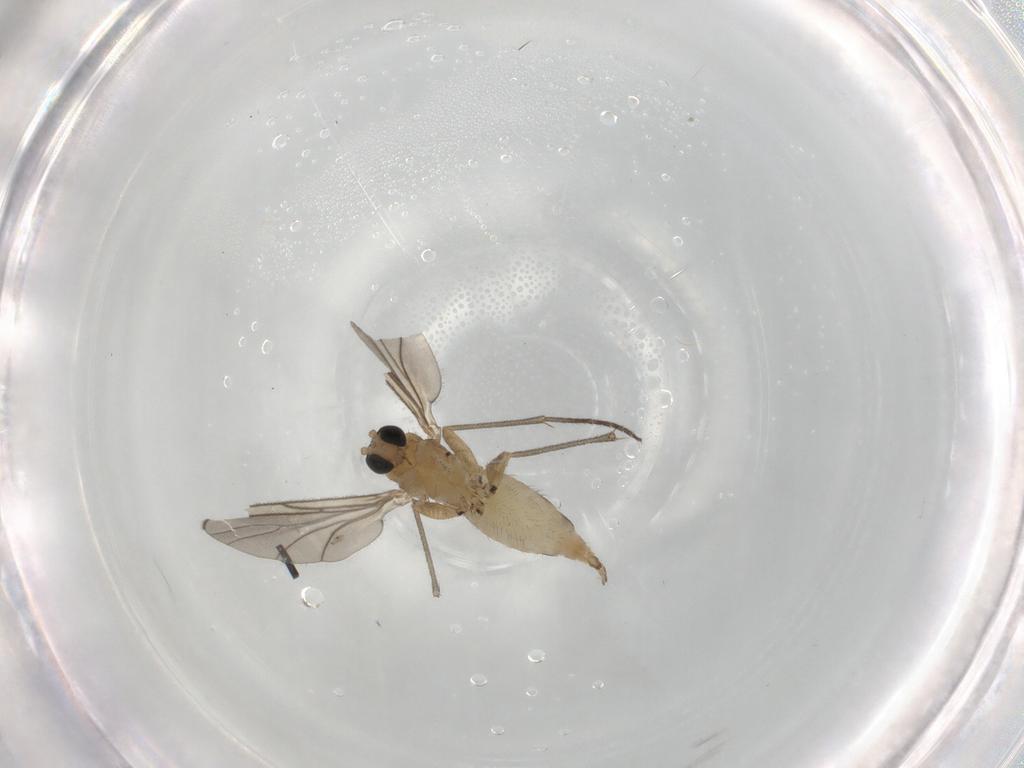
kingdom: Animalia
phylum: Arthropoda
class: Insecta
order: Diptera
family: Sciaridae
